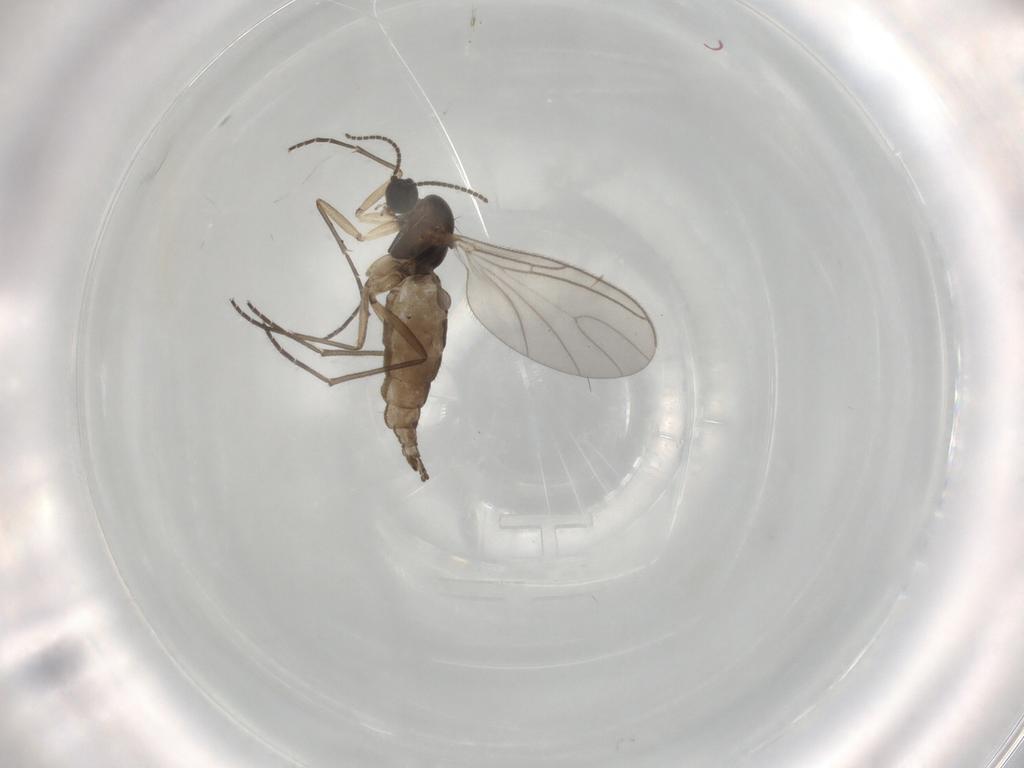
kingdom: Animalia
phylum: Arthropoda
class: Insecta
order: Diptera
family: Sciaridae
